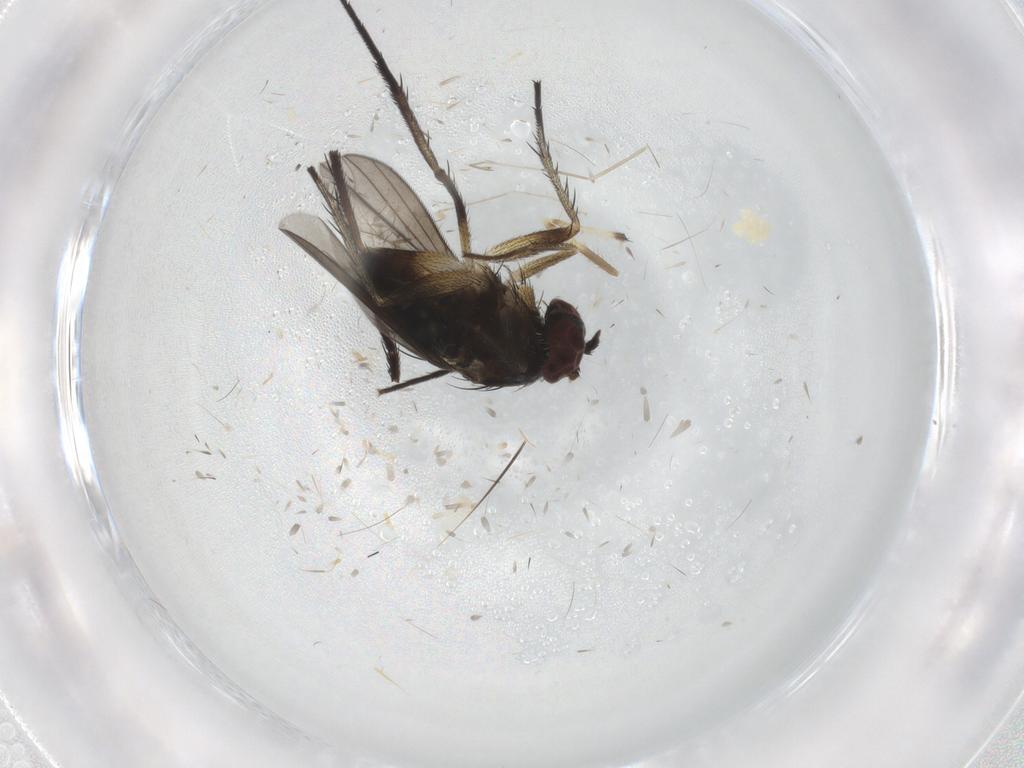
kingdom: Animalia
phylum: Arthropoda
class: Insecta
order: Diptera
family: Dolichopodidae
